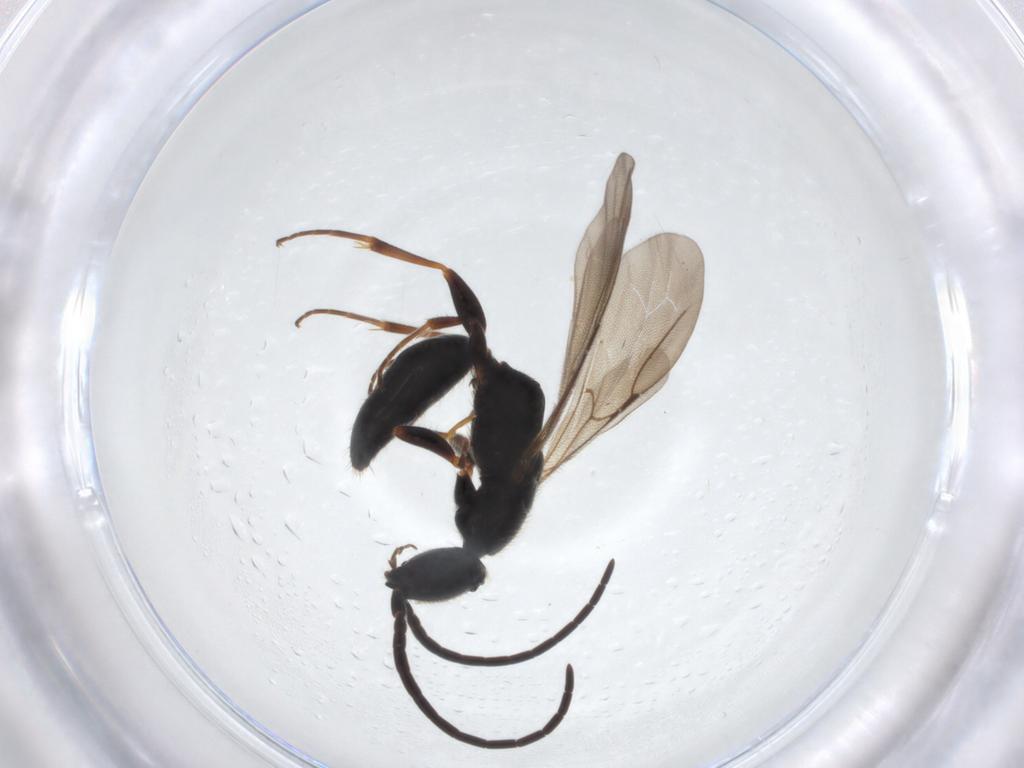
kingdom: Animalia
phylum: Arthropoda
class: Insecta
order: Hymenoptera
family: Bethylidae
